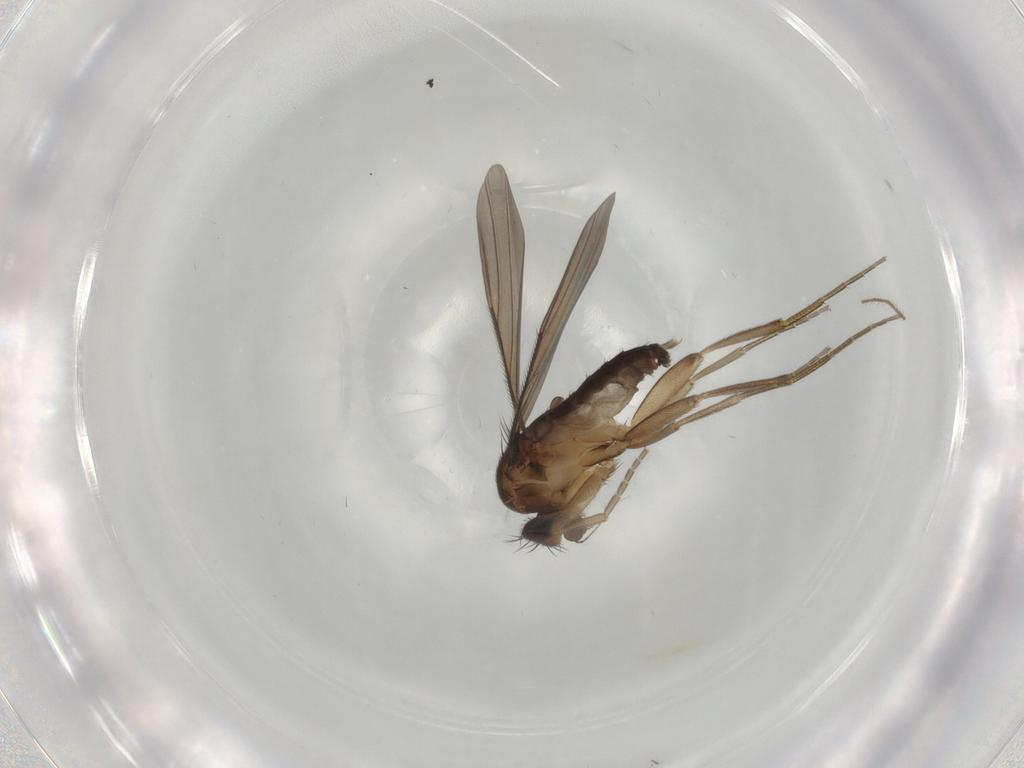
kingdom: Animalia
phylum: Arthropoda
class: Insecta
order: Diptera
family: Phoridae
